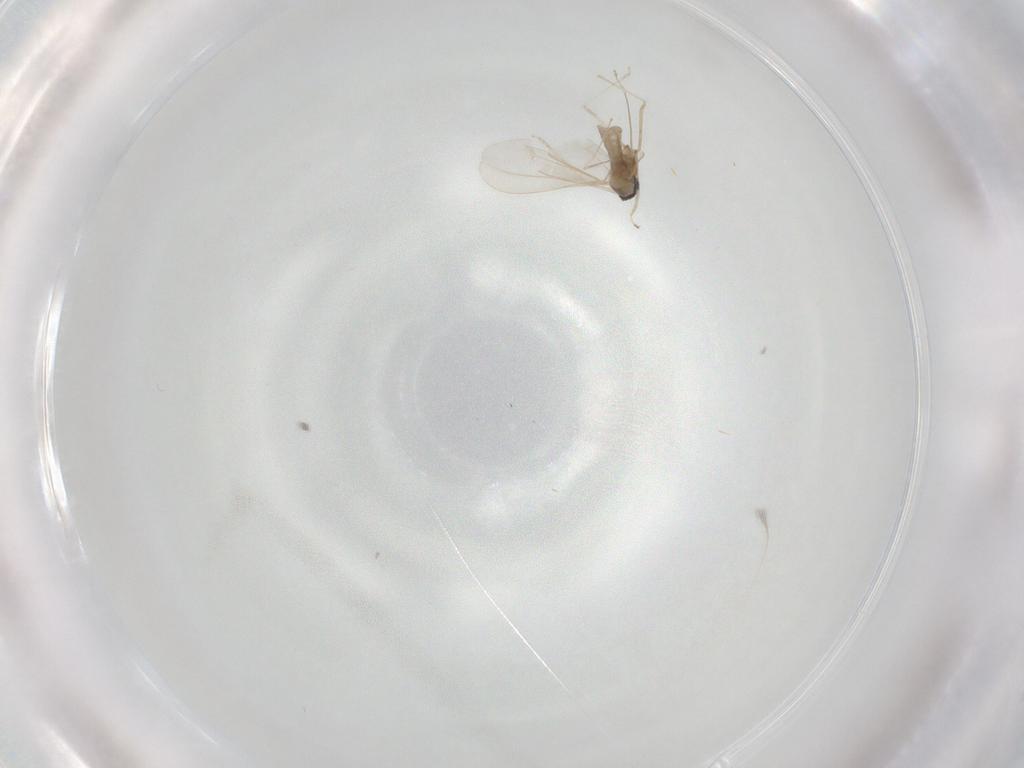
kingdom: Animalia
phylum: Arthropoda
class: Insecta
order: Diptera
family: Cecidomyiidae
